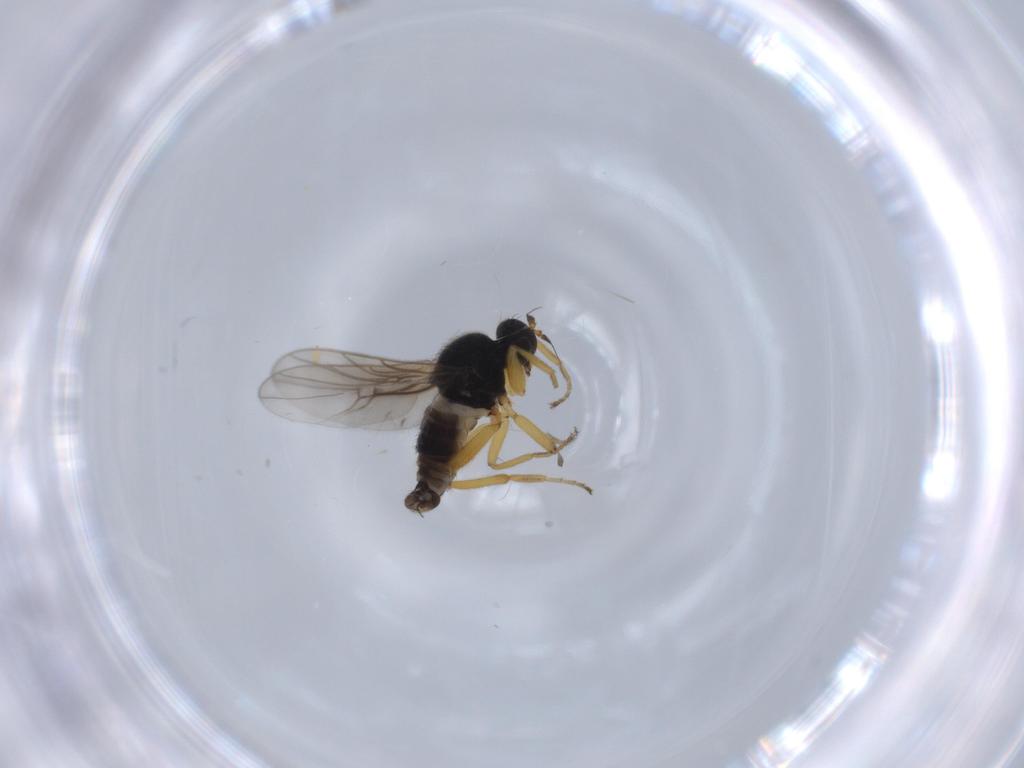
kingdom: Animalia
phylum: Arthropoda
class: Insecta
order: Diptera
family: Hybotidae
